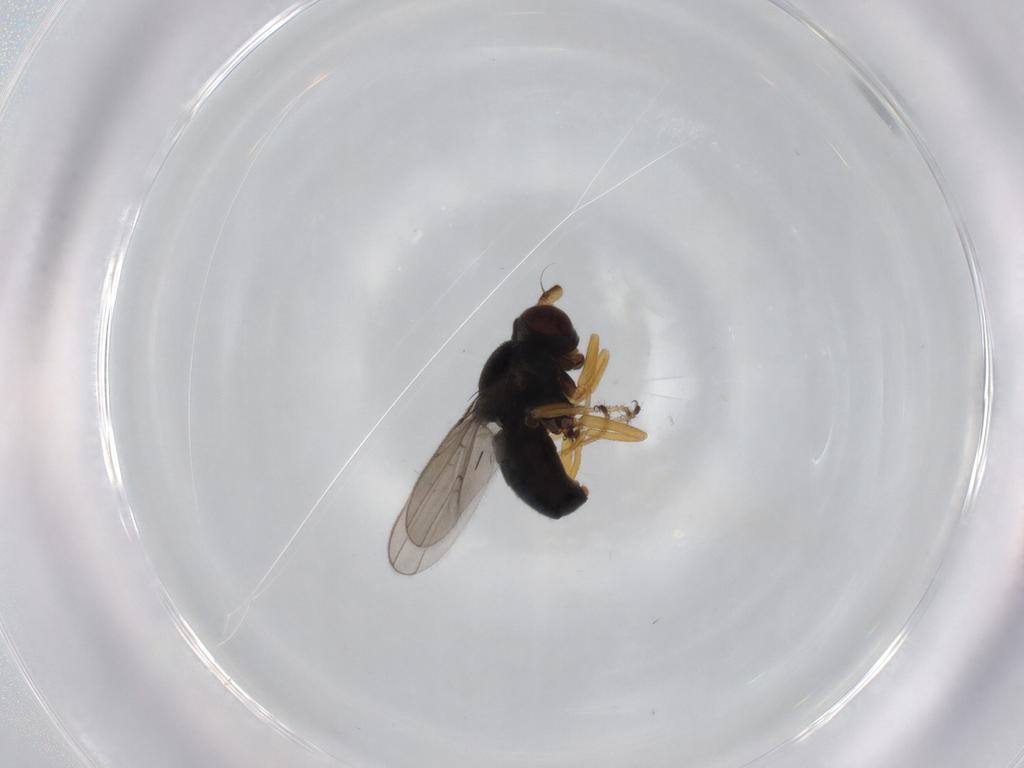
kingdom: Animalia
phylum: Arthropoda
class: Insecta
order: Diptera
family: Ephydridae
